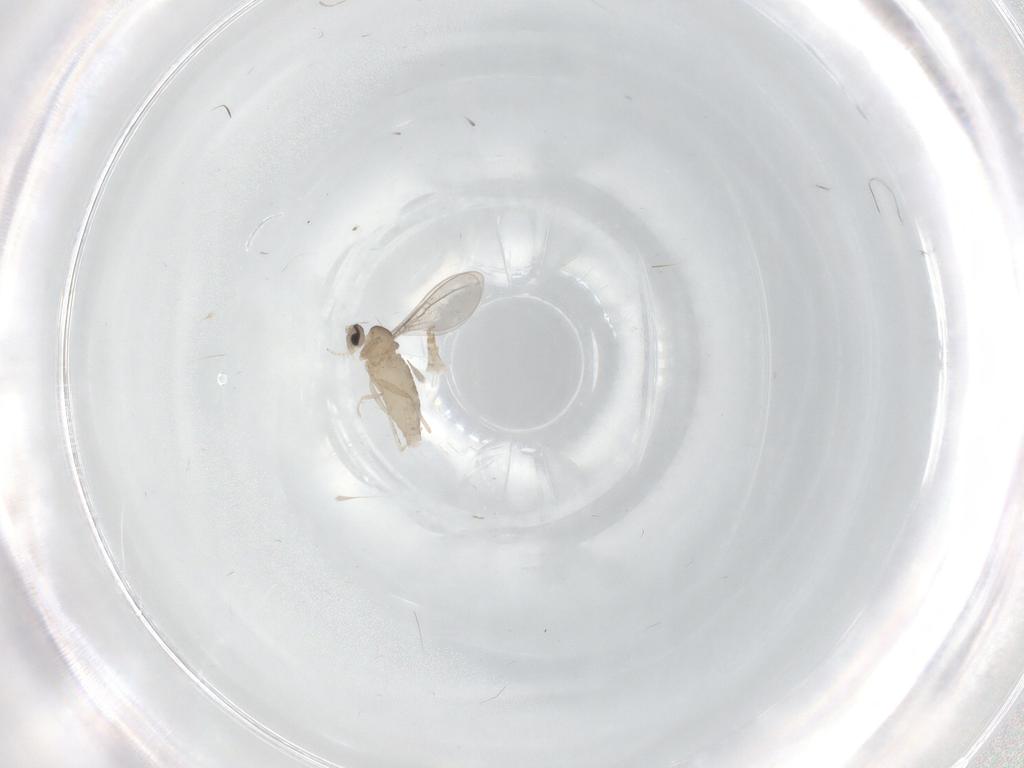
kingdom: Animalia
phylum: Arthropoda
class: Insecta
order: Diptera
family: Cecidomyiidae
